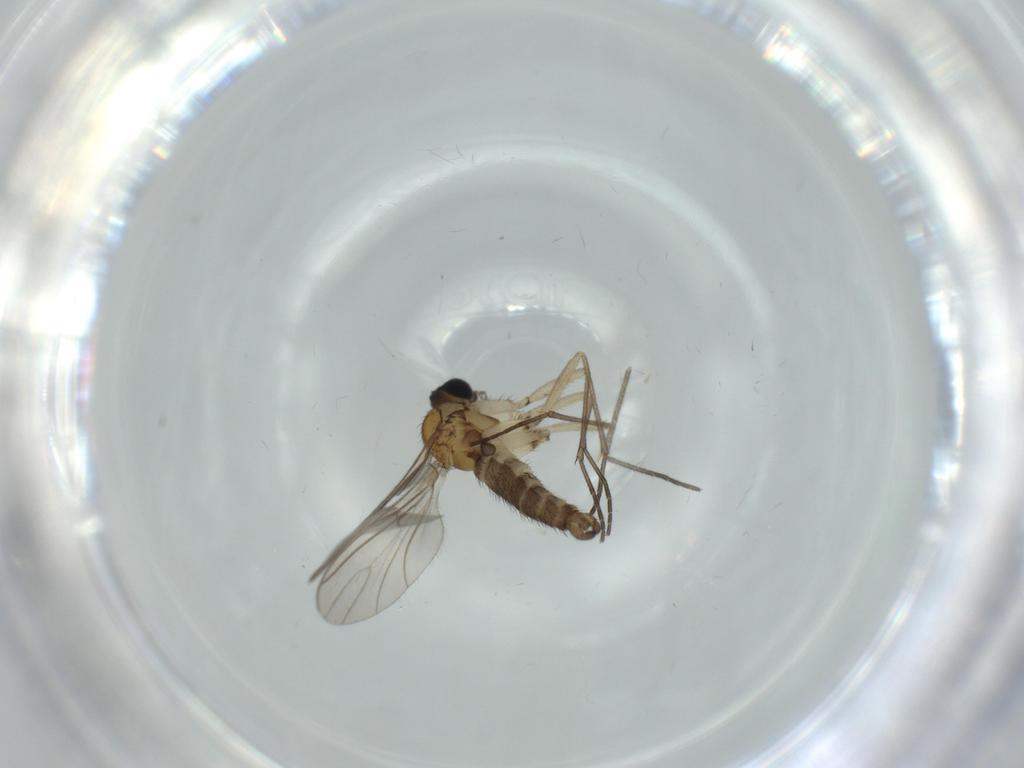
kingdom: Animalia
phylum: Arthropoda
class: Insecta
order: Diptera
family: Sciaridae
